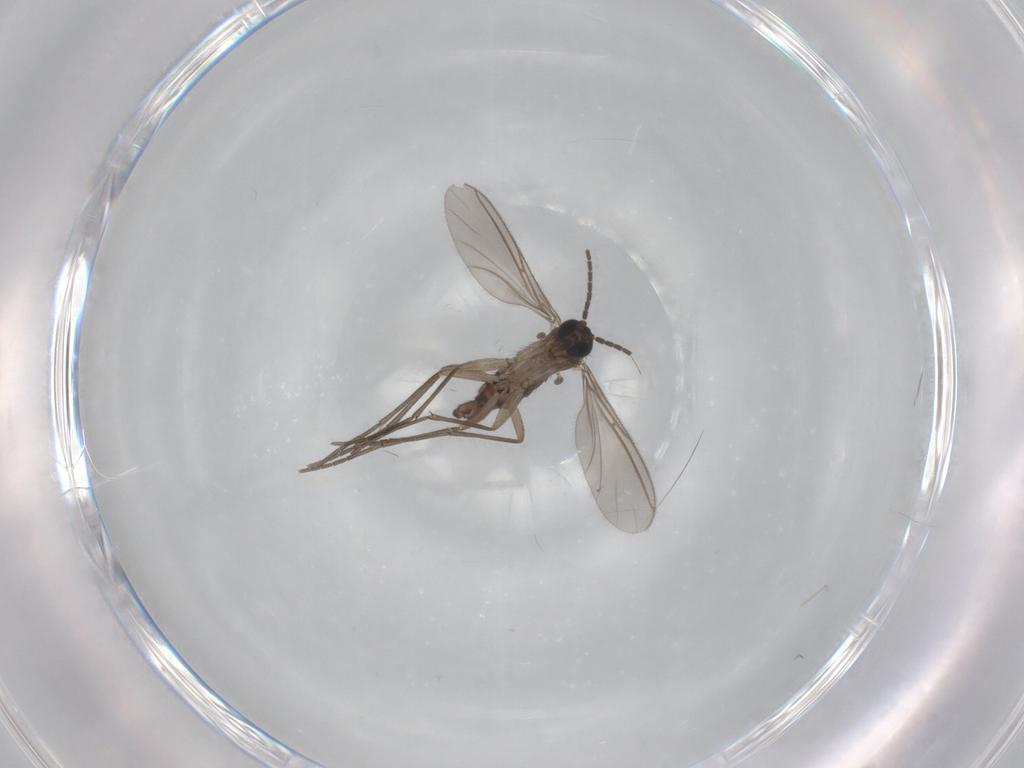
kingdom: Animalia
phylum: Arthropoda
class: Insecta
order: Diptera
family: Sciaridae
